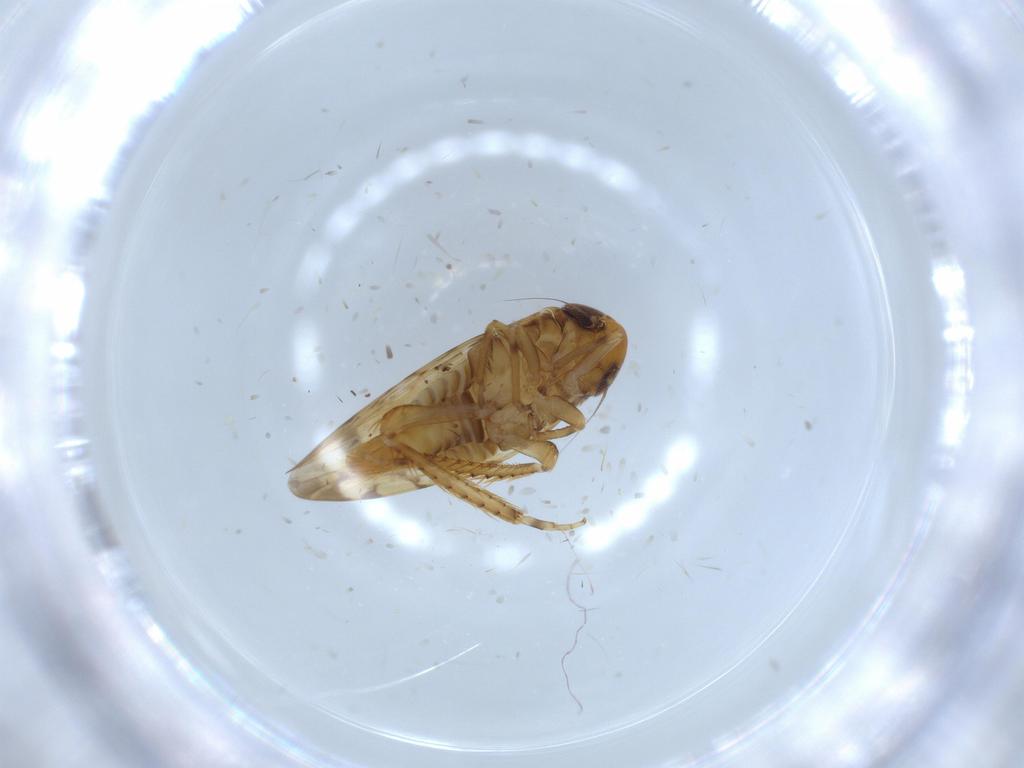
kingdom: Animalia
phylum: Arthropoda
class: Insecta
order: Hemiptera
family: Cicadellidae
